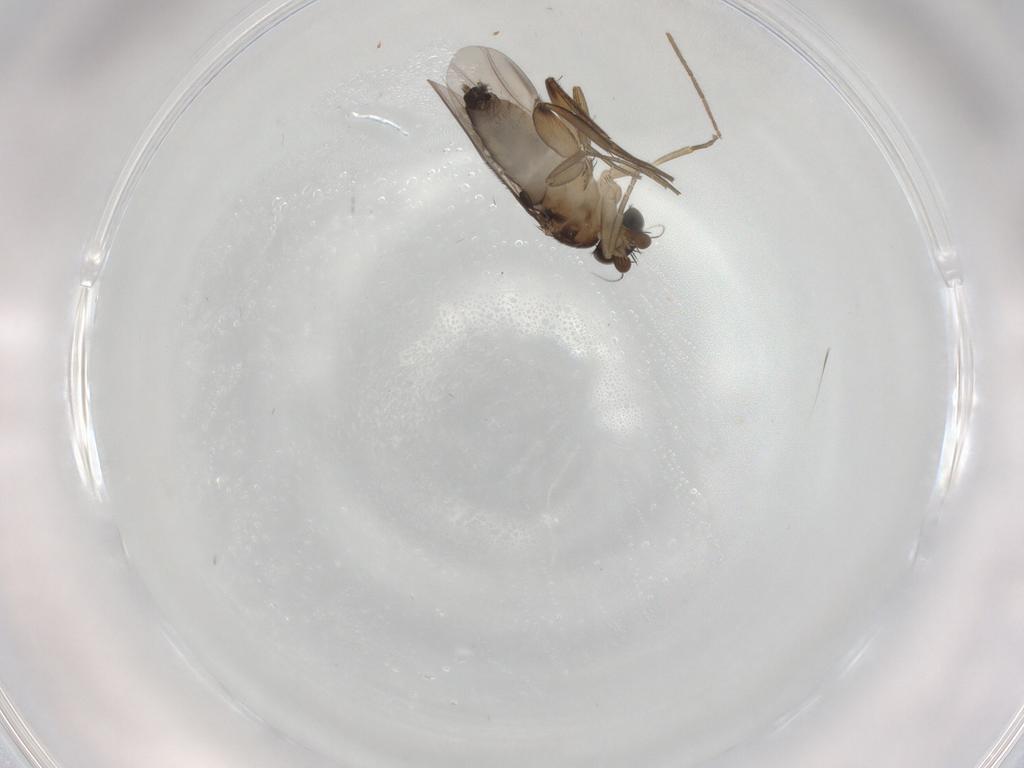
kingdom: Animalia
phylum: Arthropoda
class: Insecta
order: Diptera
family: Phoridae
